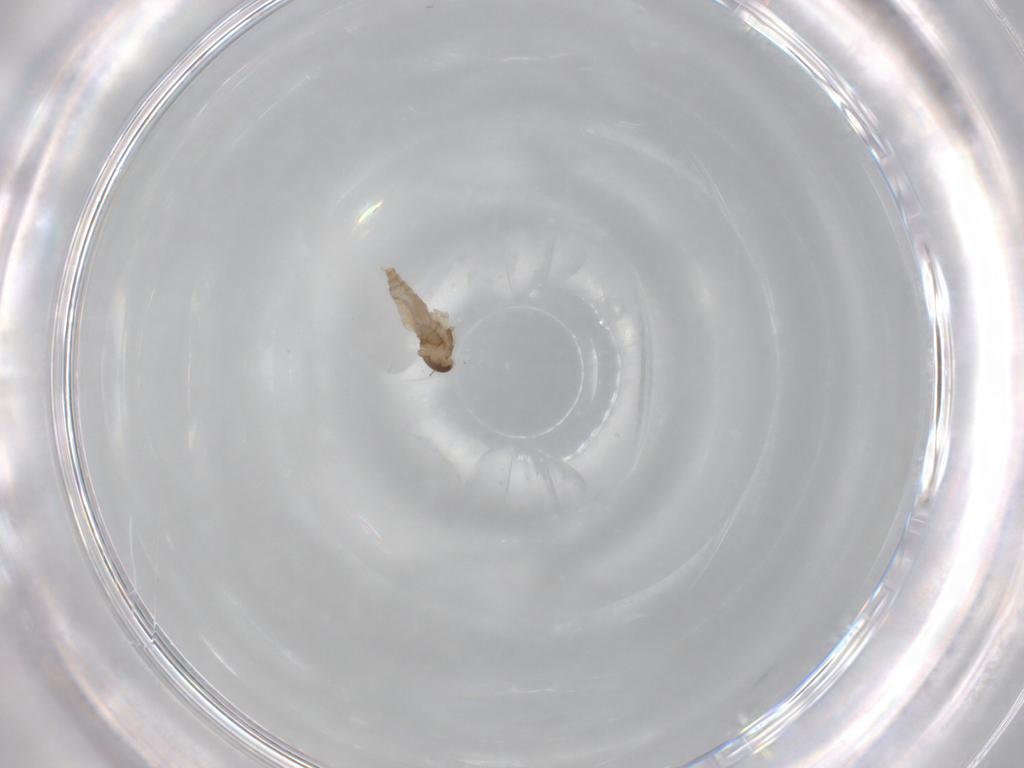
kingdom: Animalia
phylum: Arthropoda
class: Insecta
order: Diptera
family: Cecidomyiidae
